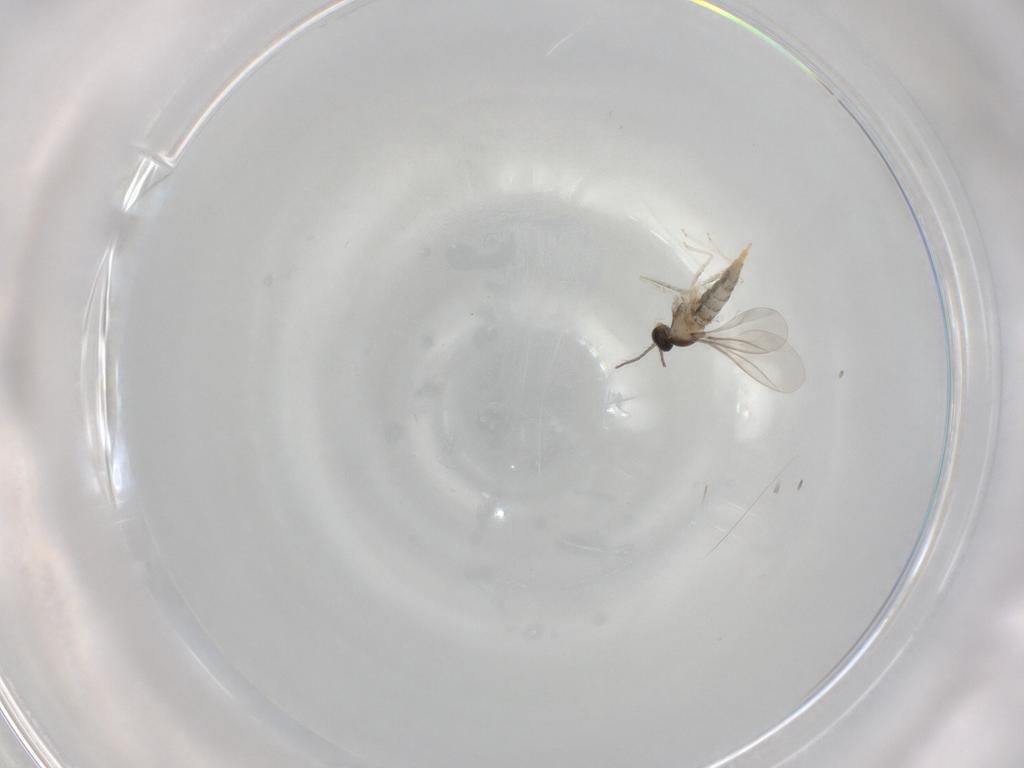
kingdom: Animalia
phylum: Arthropoda
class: Insecta
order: Diptera
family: Cecidomyiidae
